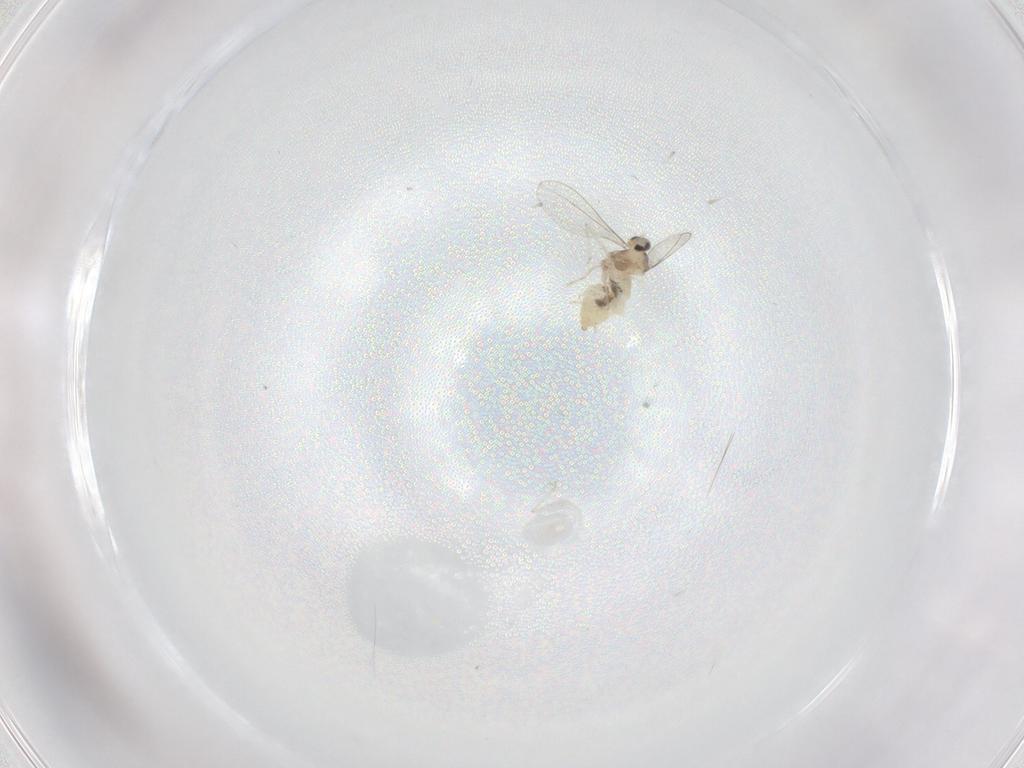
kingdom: Animalia
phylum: Arthropoda
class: Insecta
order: Diptera
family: Cecidomyiidae
